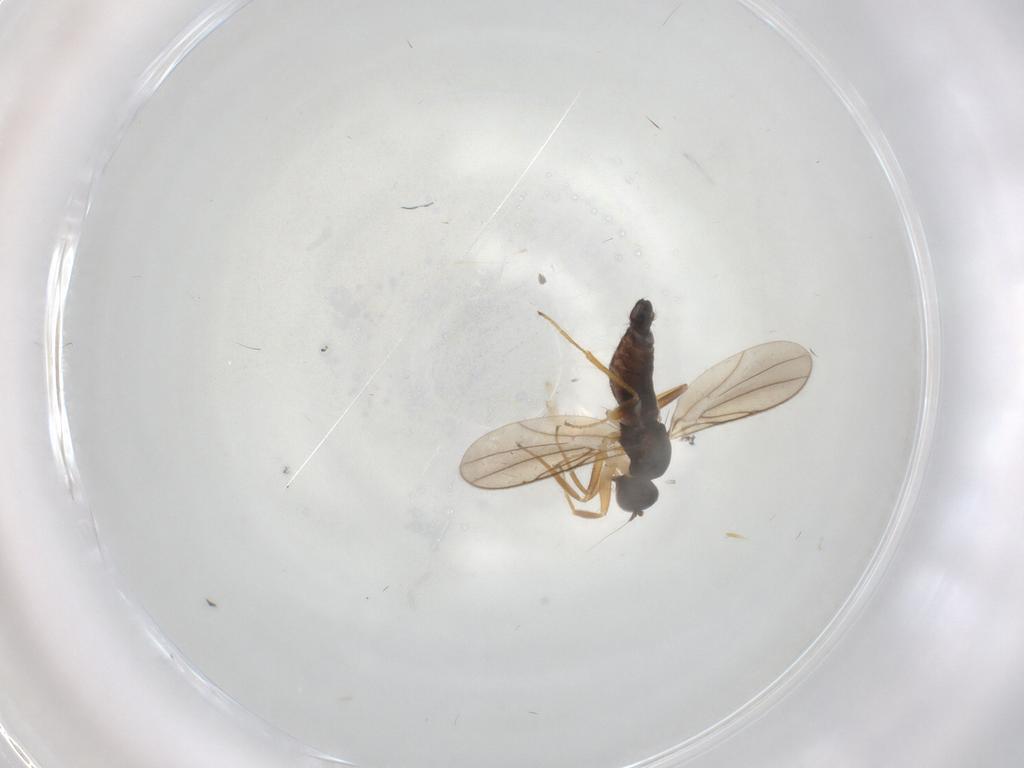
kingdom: Animalia
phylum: Arthropoda
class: Insecta
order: Diptera
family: Hybotidae
